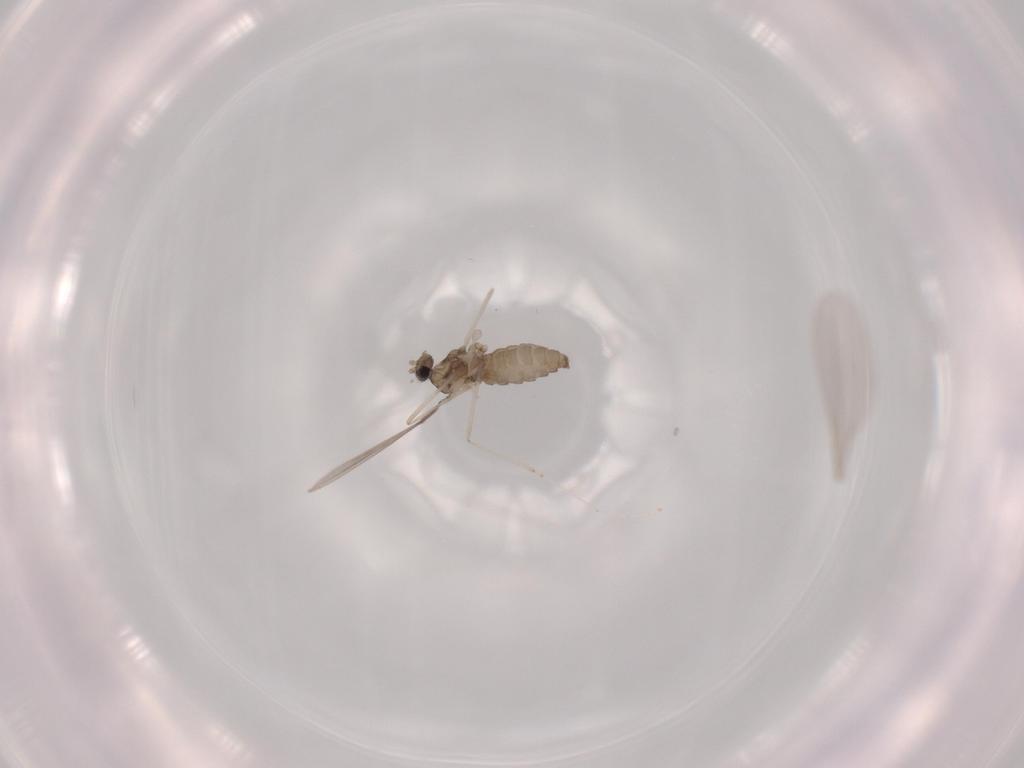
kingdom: Animalia
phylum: Arthropoda
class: Insecta
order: Diptera
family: Cecidomyiidae
